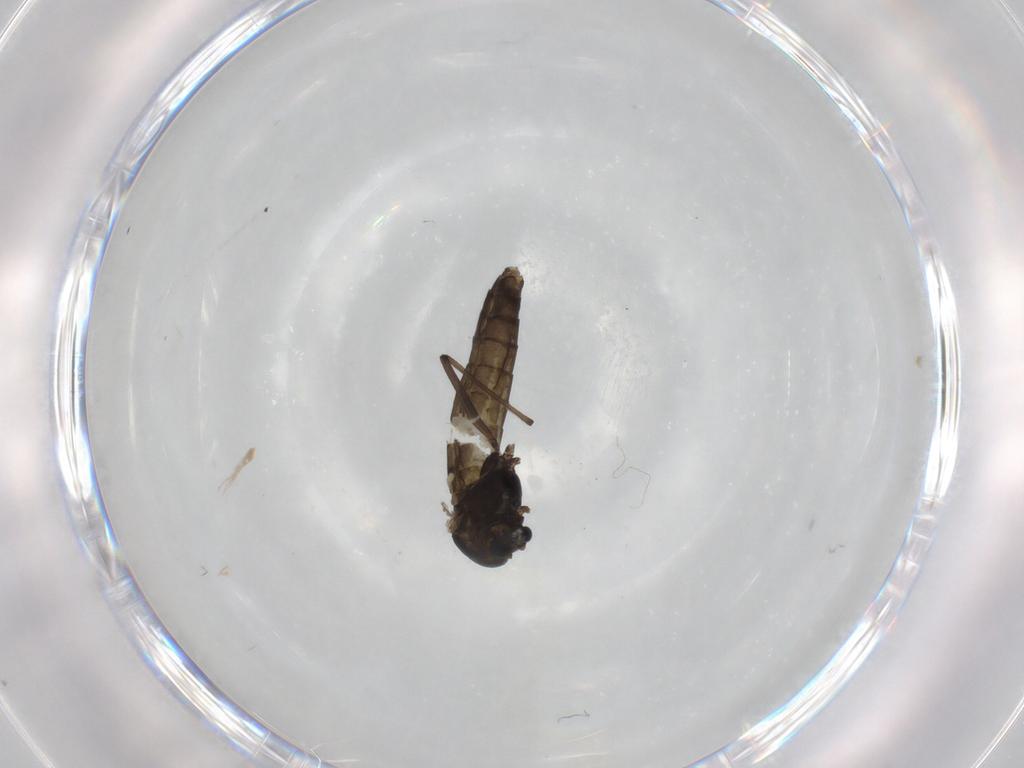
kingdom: Animalia
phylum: Arthropoda
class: Insecta
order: Diptera
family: Chironomidae
